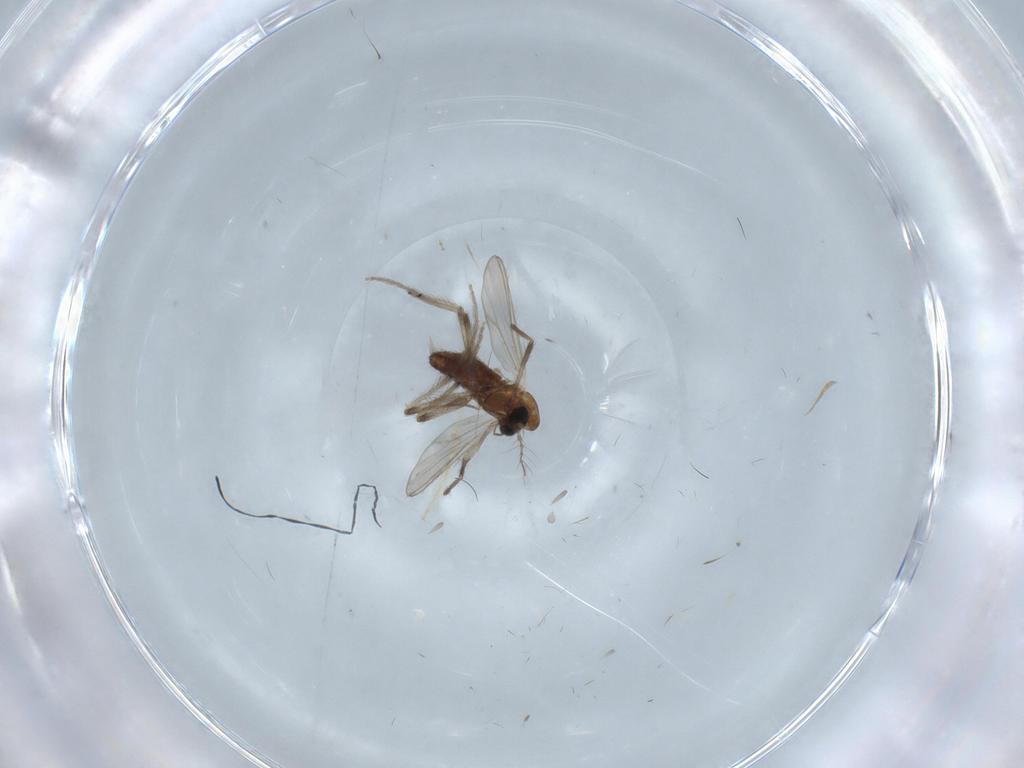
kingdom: Animalia
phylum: Arthropoda
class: Insecta
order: Diptera
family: Chironomidae
